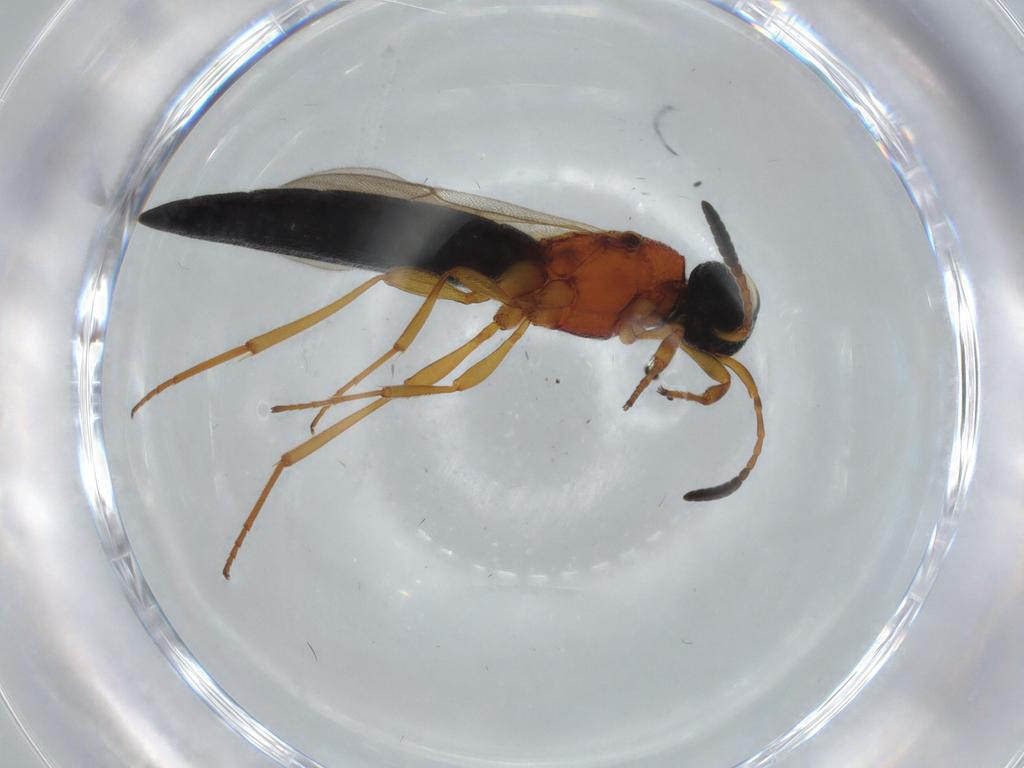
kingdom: Animalia
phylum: Arthropoda
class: Insecta
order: Hymenoptera
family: Scelionidae
